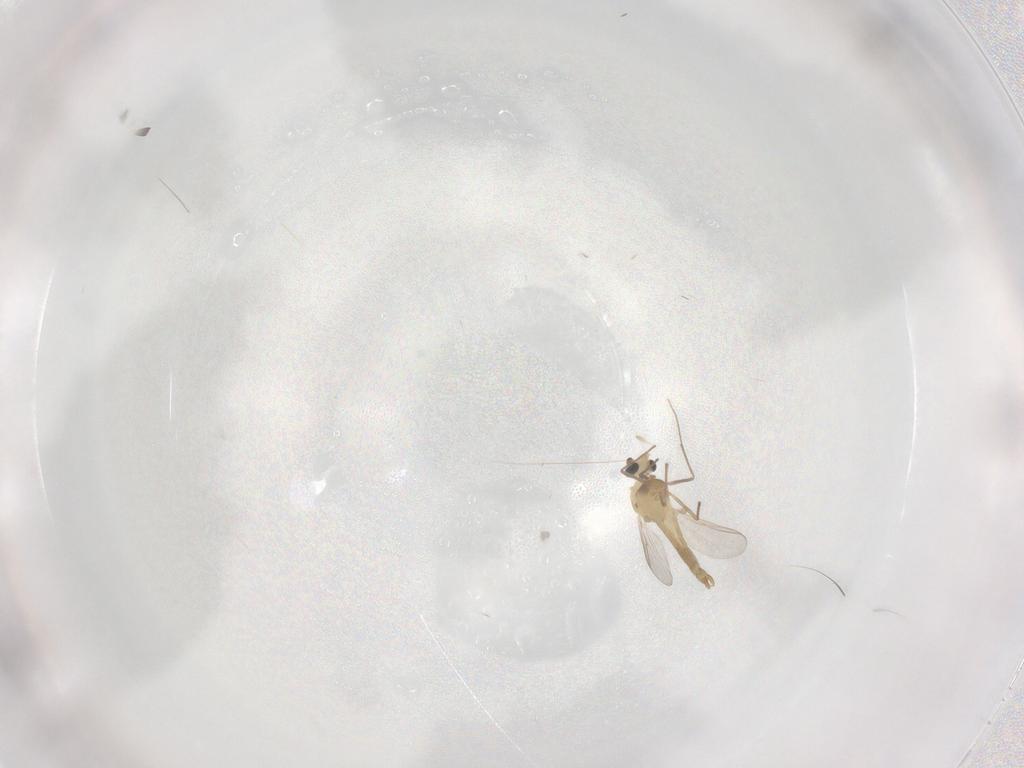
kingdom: Animalia
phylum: Arthropoda
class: Insecta
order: Diptera
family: Chironomidae
